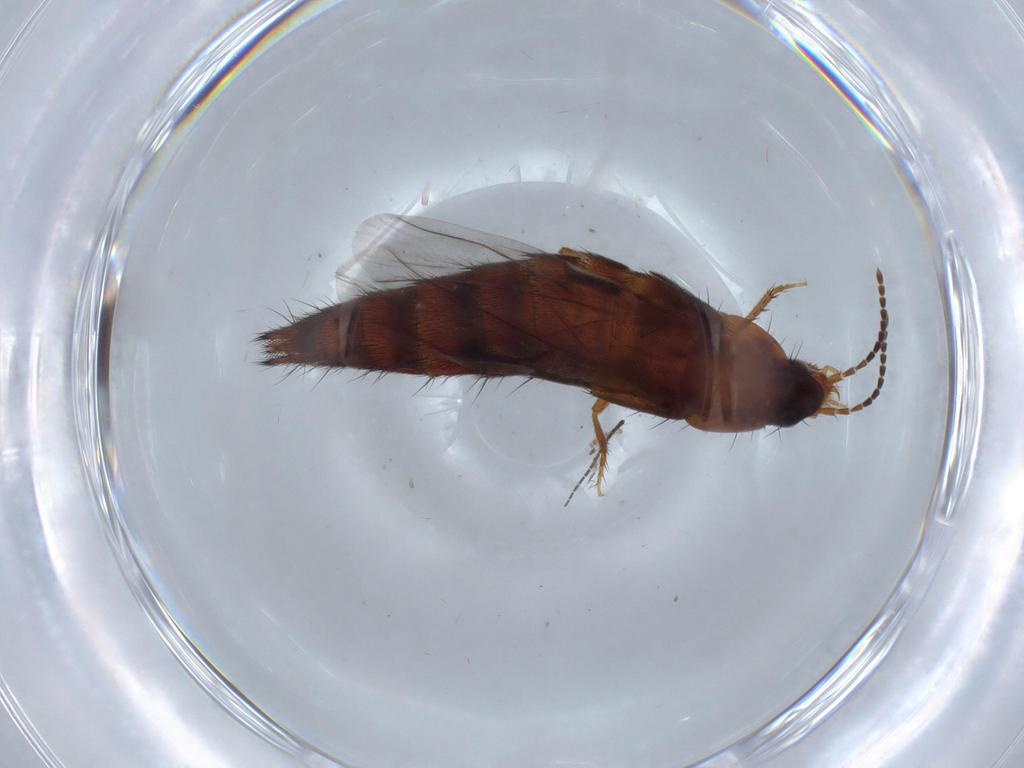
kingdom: Animalia
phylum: Arthropoda
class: Insecta
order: Coleoptera
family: Staphylinidae
